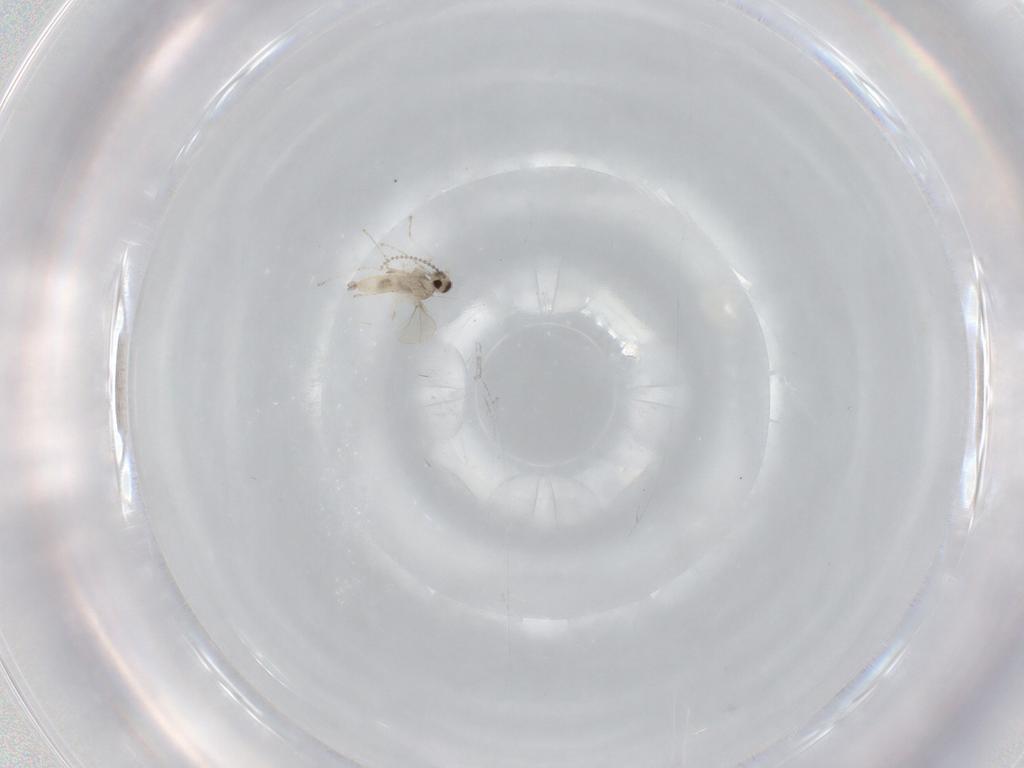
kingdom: Animalia
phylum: Arthropoda
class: Insecta
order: Diptera
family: Cecidomyiidae
